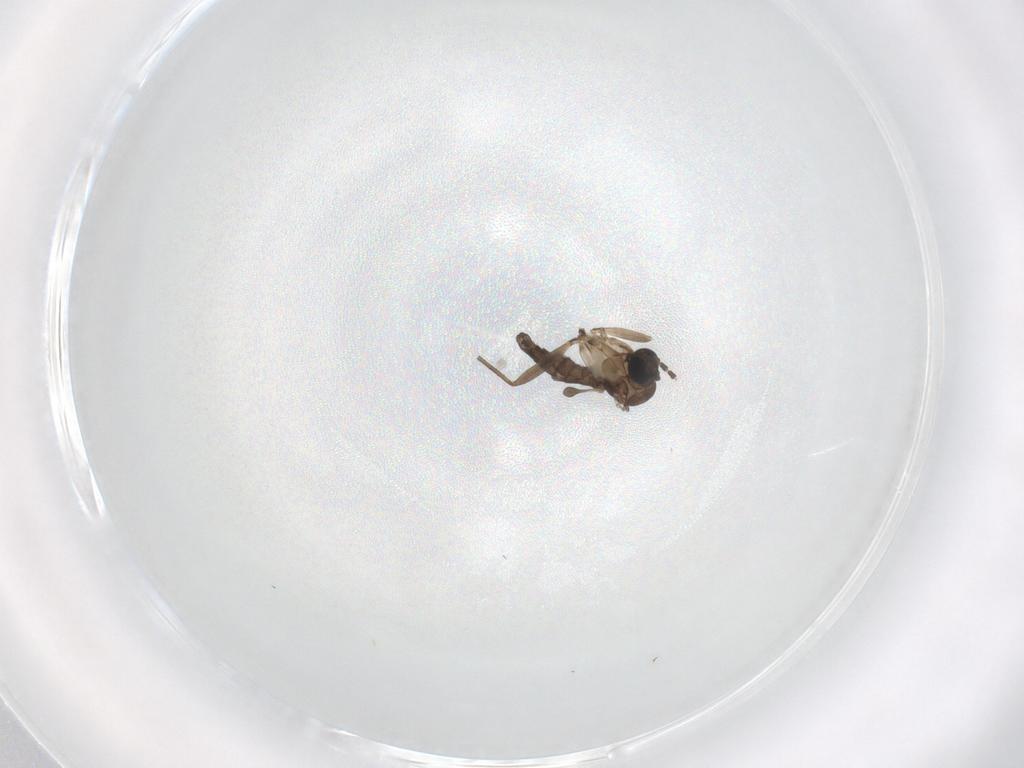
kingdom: Animalia
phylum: Arthropoda
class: Insecta
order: Diptera
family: Sciaridae
